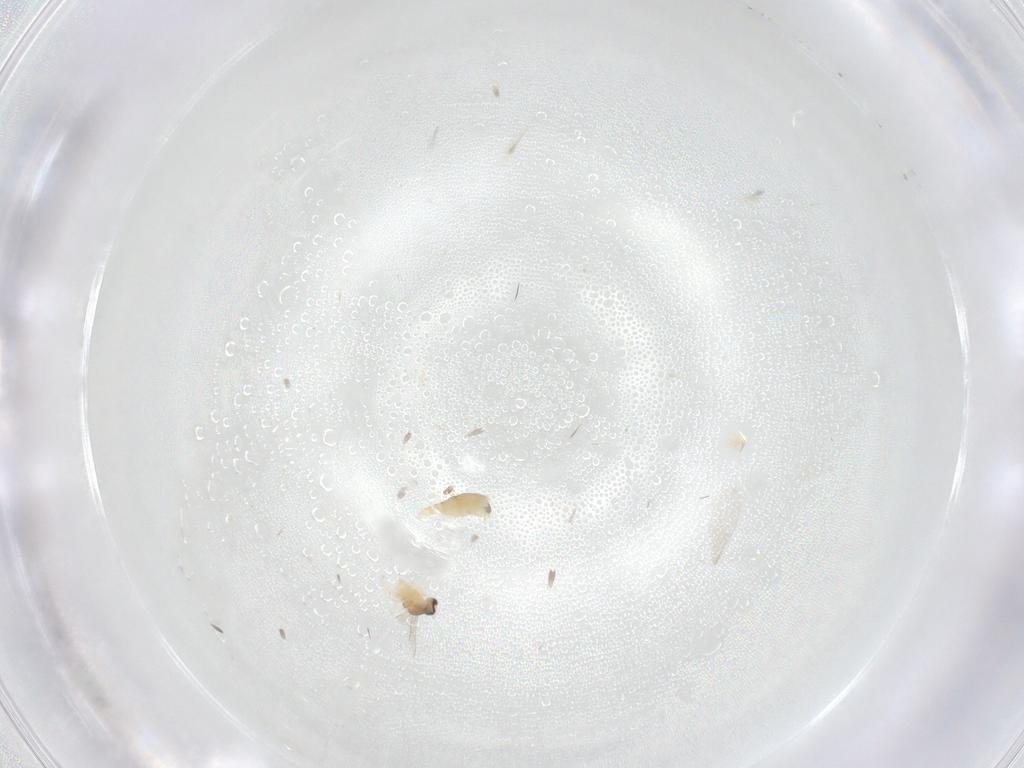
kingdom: Animalia
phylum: Arthropoda
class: Insecta
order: Diptera
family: Cecidomyiidae
